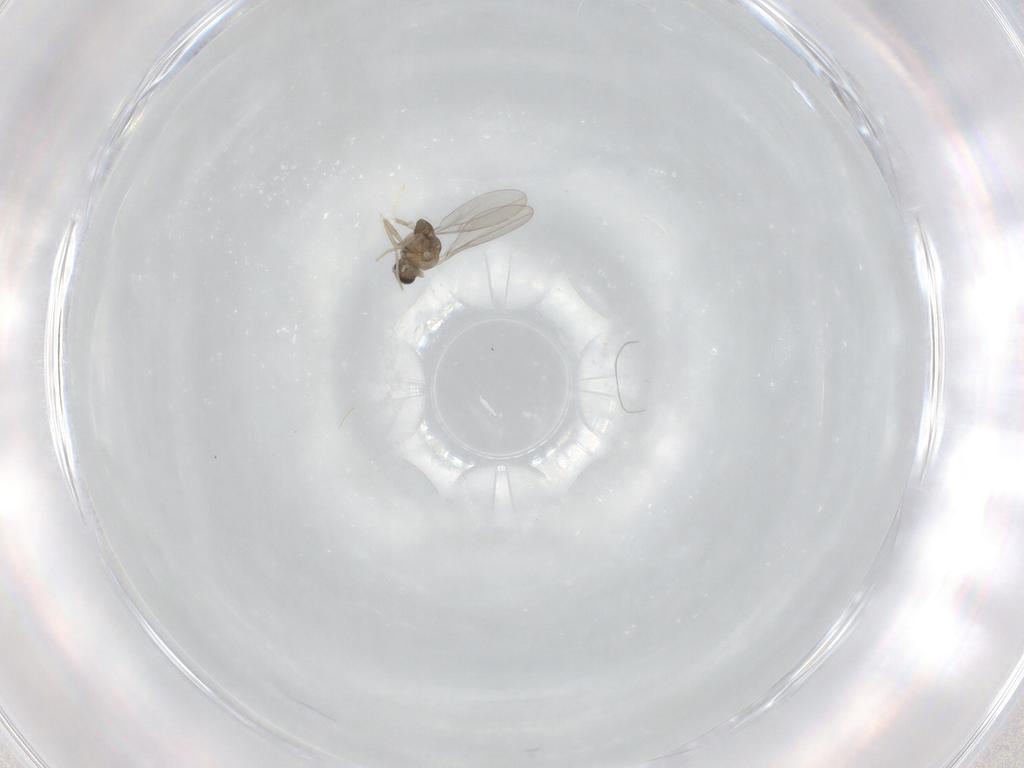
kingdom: Animalia
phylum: Arthropoda
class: Insecta
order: Diptera
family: Cecidomyiidae
